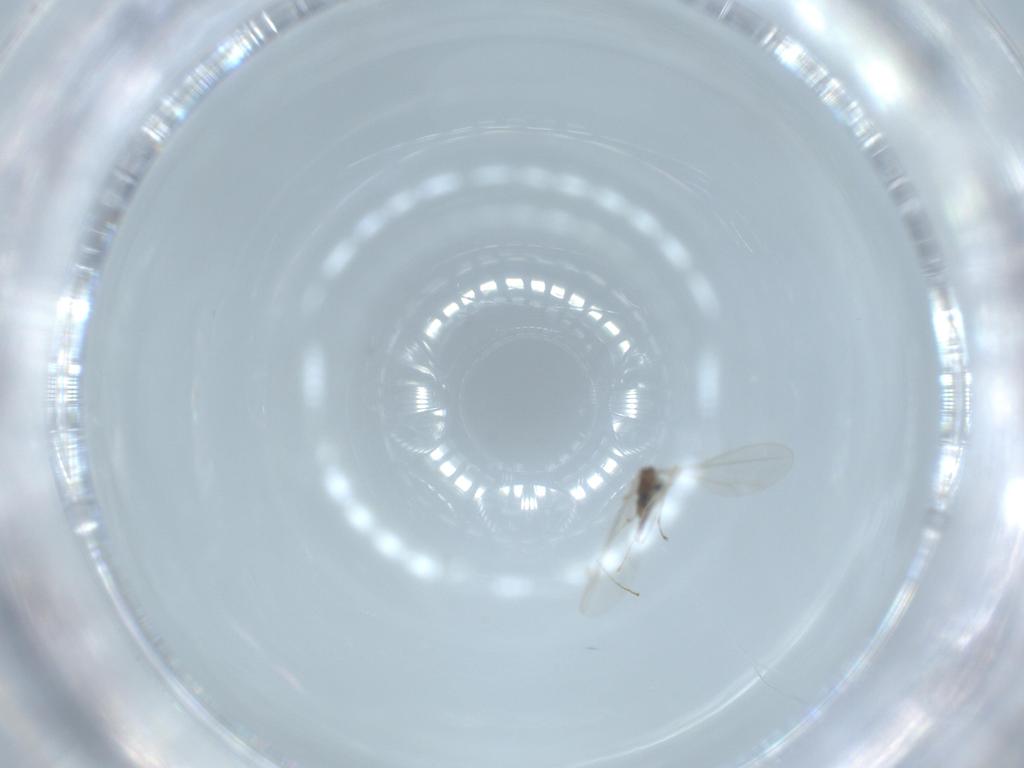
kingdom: Animalia
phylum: Arthropoda
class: Insecta
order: Diptera
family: Cecidomyiidae
